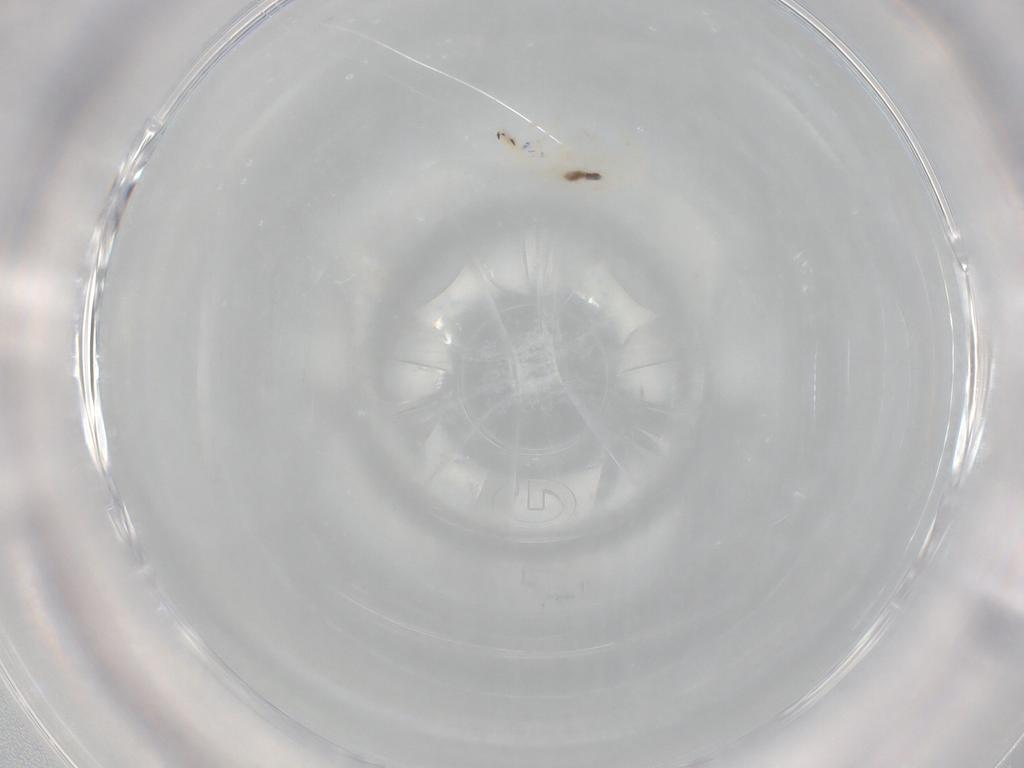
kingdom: Animalia
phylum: Arthropoda
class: Collembola
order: Entomobryomorpha
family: Entomobryidae
